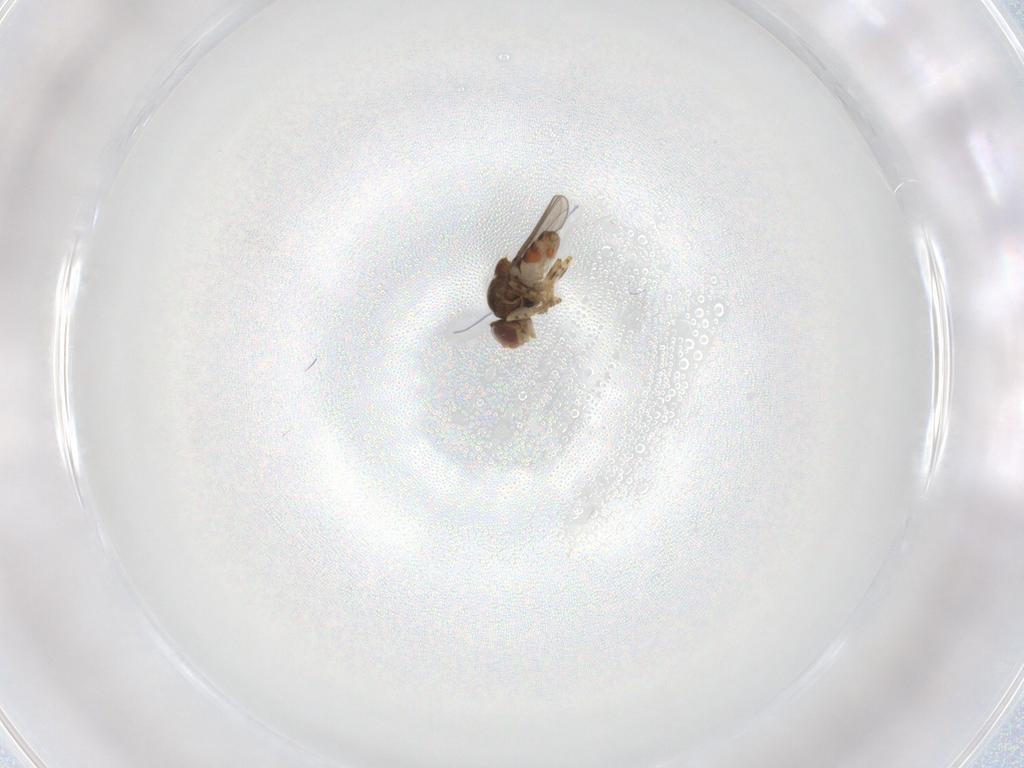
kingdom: Animalia
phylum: Arthropoda
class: Insecta
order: Diptera
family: Chloropidae
